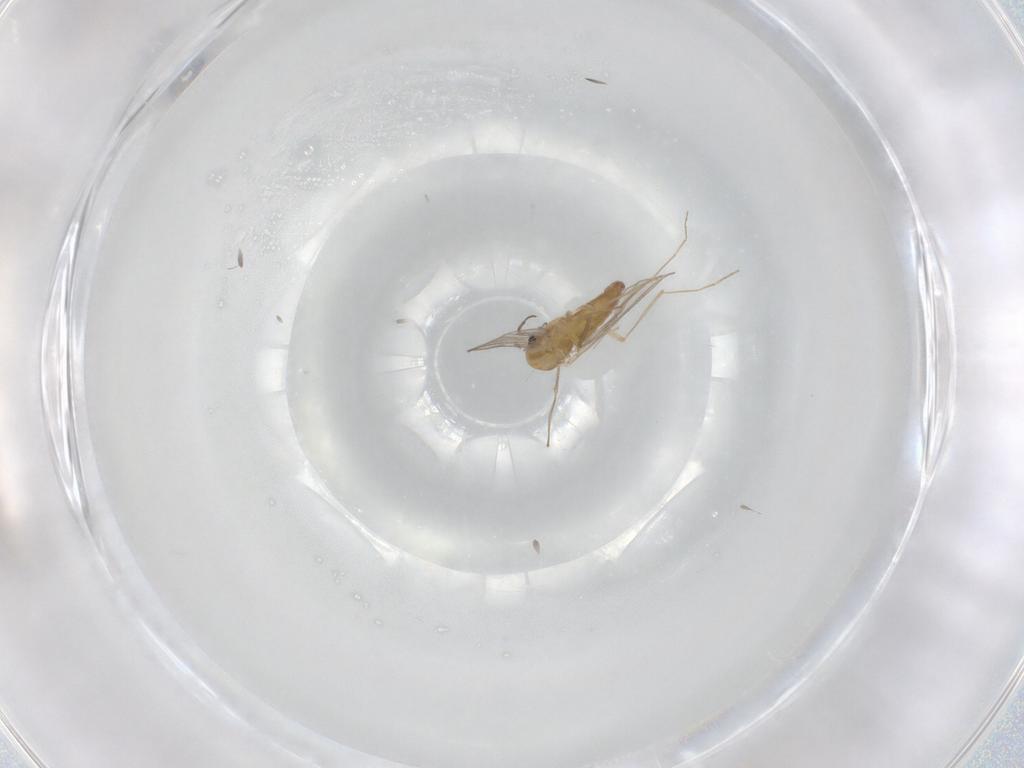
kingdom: Animalia
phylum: Arthropoda
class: Insecta
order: Diptera
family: Chironomidae
